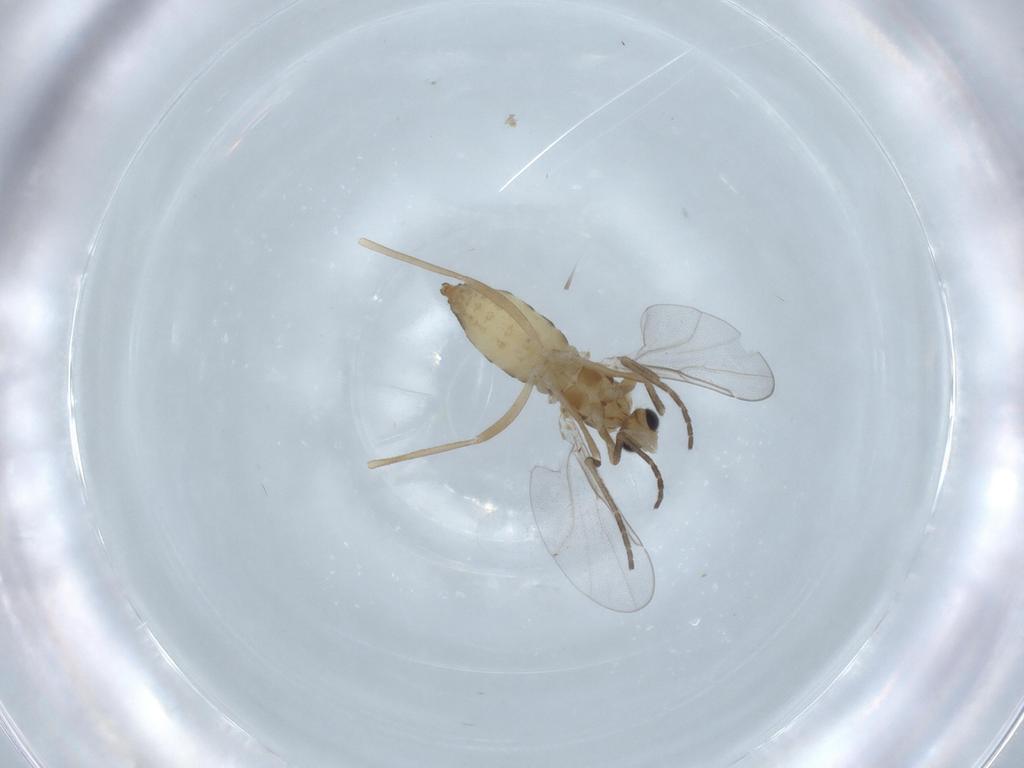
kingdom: Animalia
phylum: Arthropoda
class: Insecta
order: Diptera
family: Cecidomyiidae
